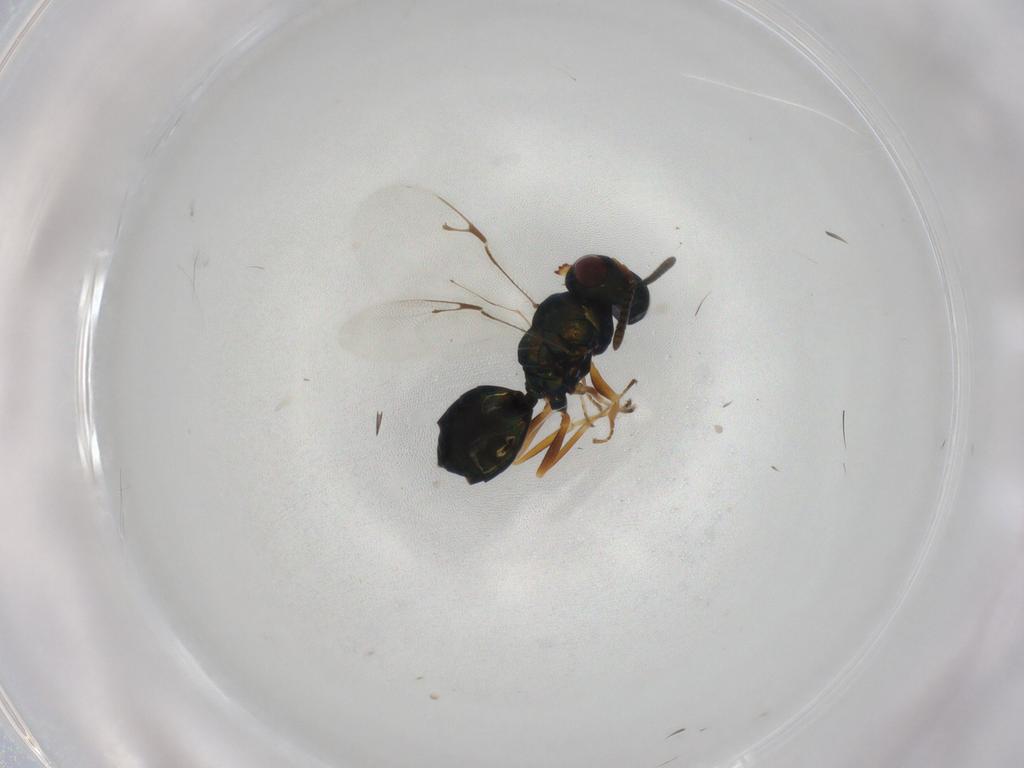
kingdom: Animalia
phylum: Arthropoda
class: Insecta
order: Hymenoptera
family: Pteromalidae
